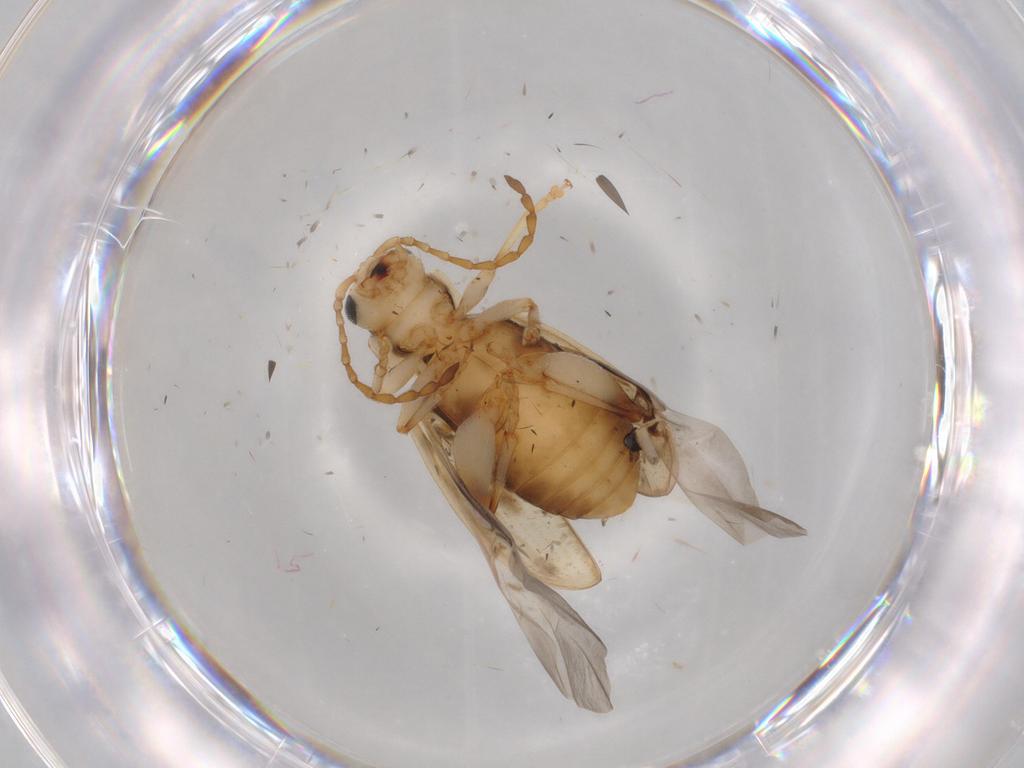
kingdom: Animalia
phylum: Arthropoda
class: Insecta
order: Coleoptera
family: Chrysomelidae
